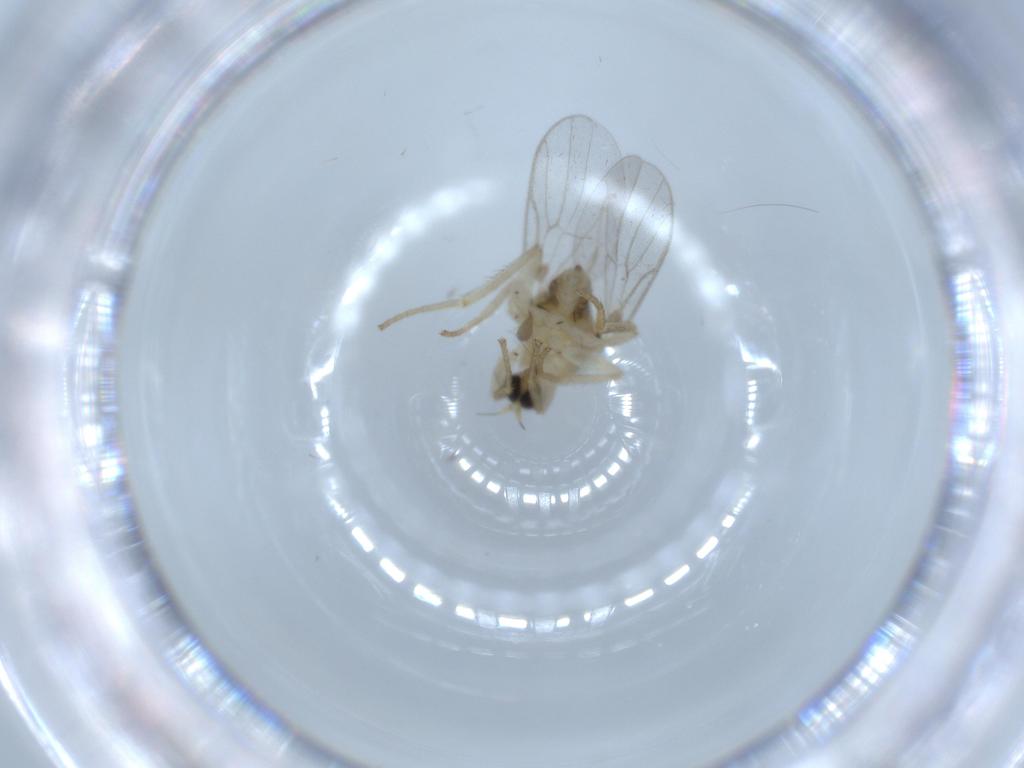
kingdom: Animalia
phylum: Arthropoda
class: Insecta
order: Diptera
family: Hybotidae
